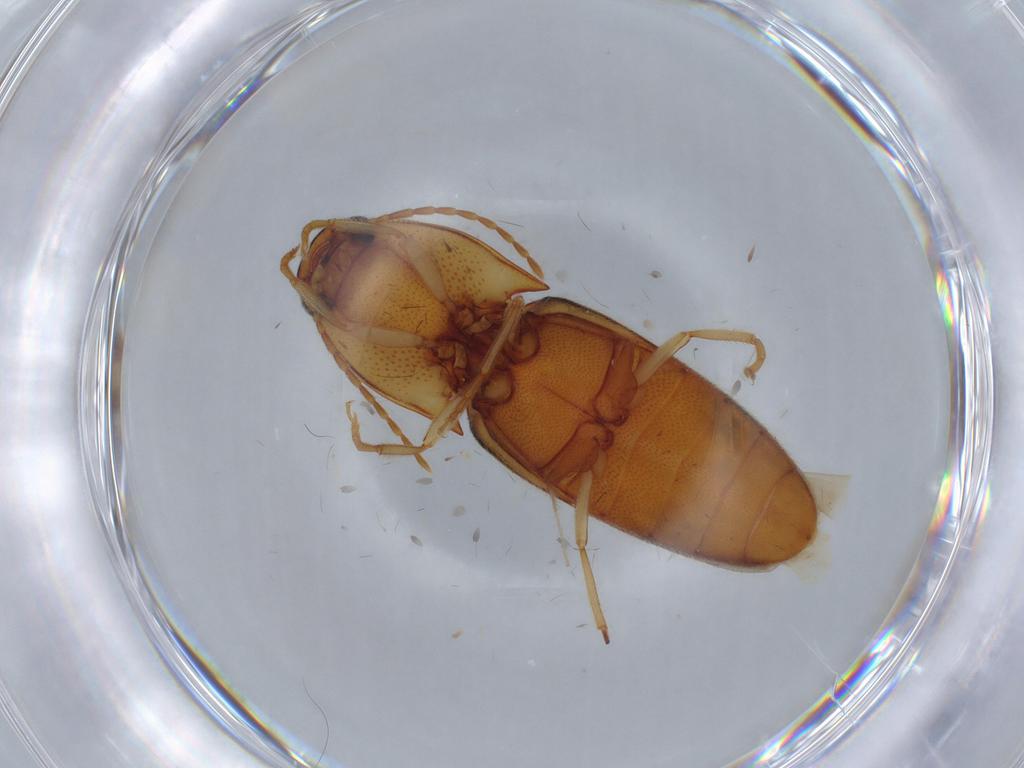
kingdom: Animalia
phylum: Arthropoda
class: Insecta
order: Coleoptera
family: Elateridae
